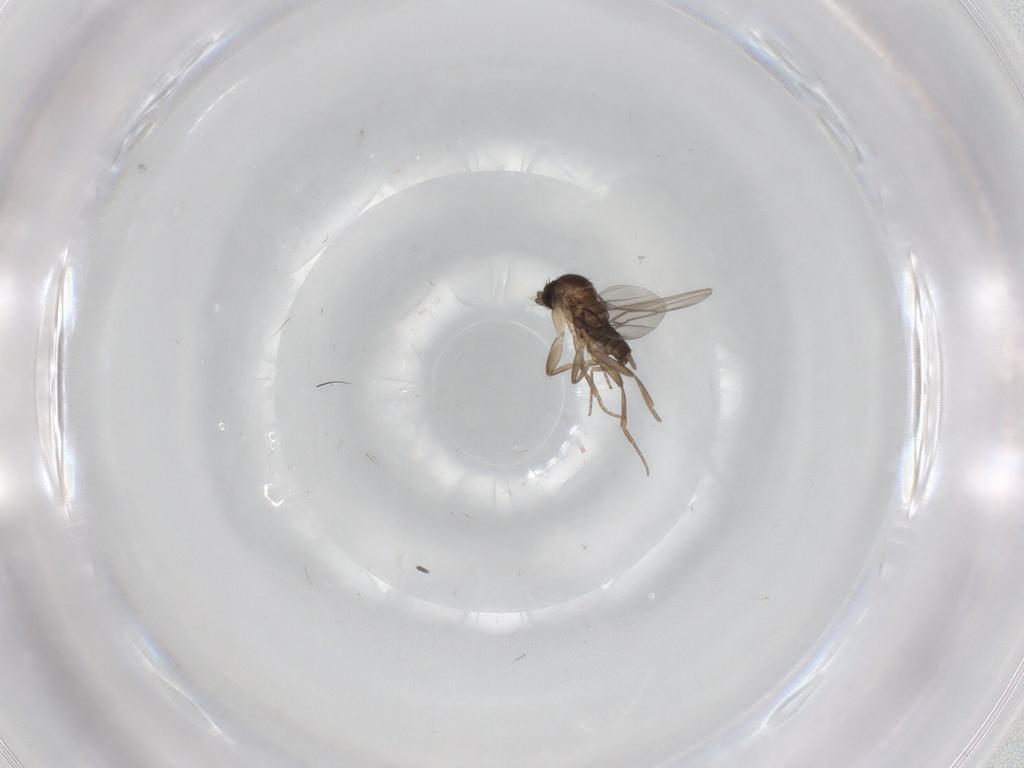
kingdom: Animalia
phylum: Arthropoda
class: Insecta
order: Diptera
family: Phoridae
